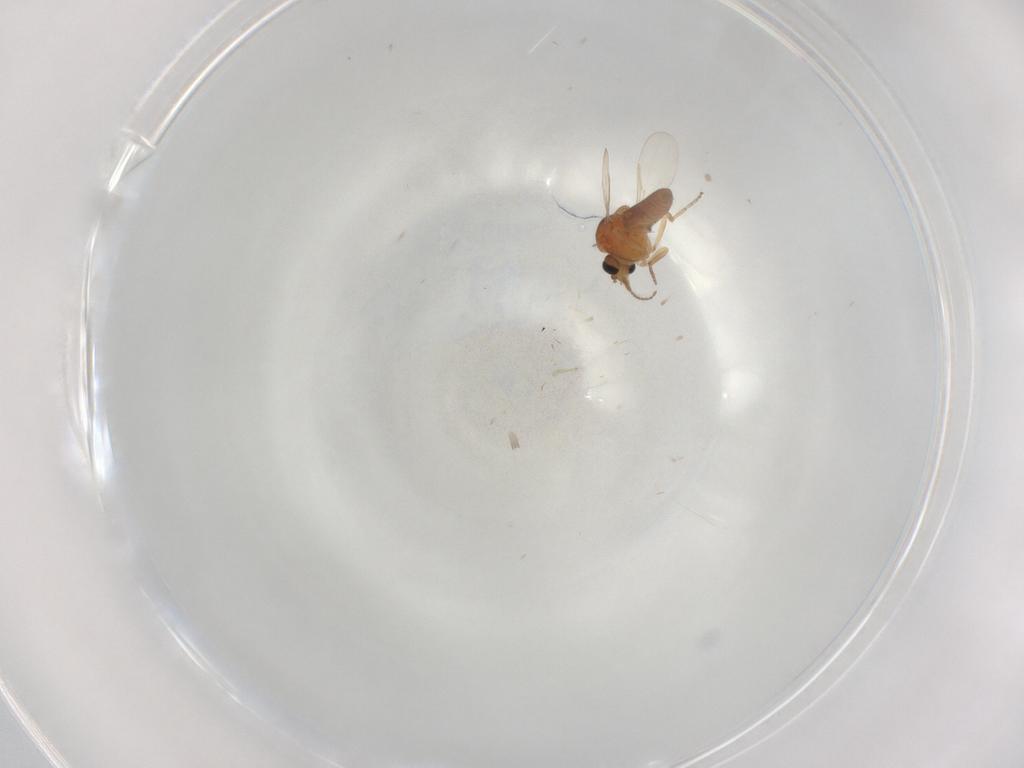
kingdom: Animalia
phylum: Arthropoda
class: Insecta
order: Diptera
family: Ceratopogonidae
